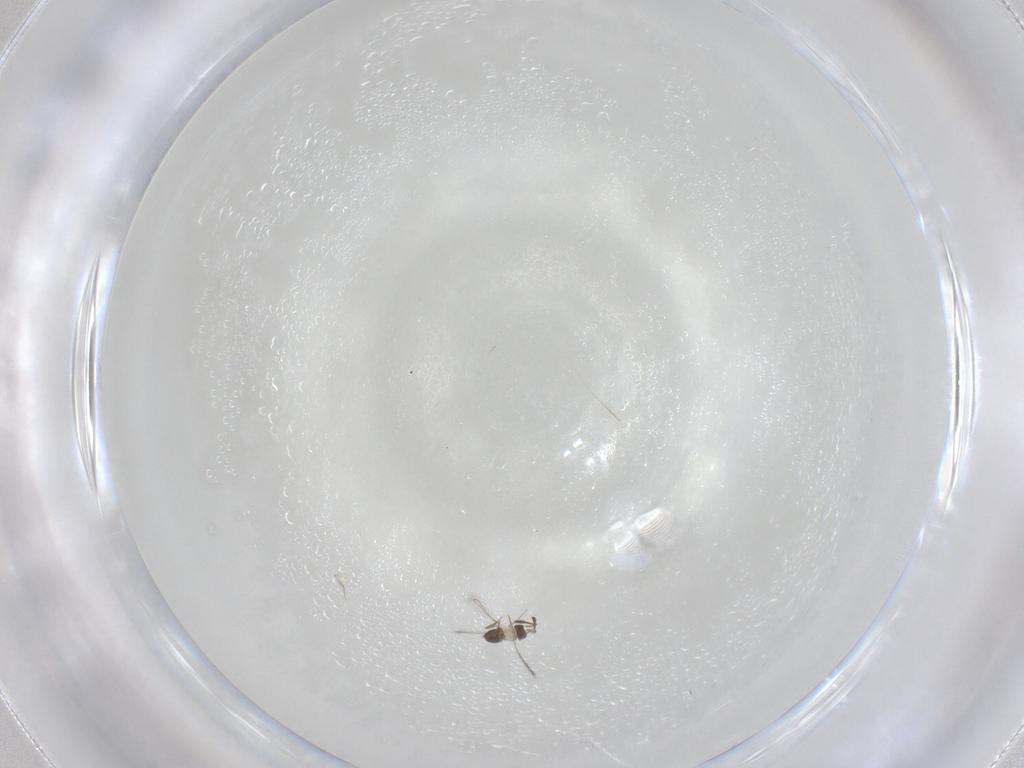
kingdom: Animalia
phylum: Arthropoda
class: Insecta
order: Hymenoptera
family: Mymaridae
